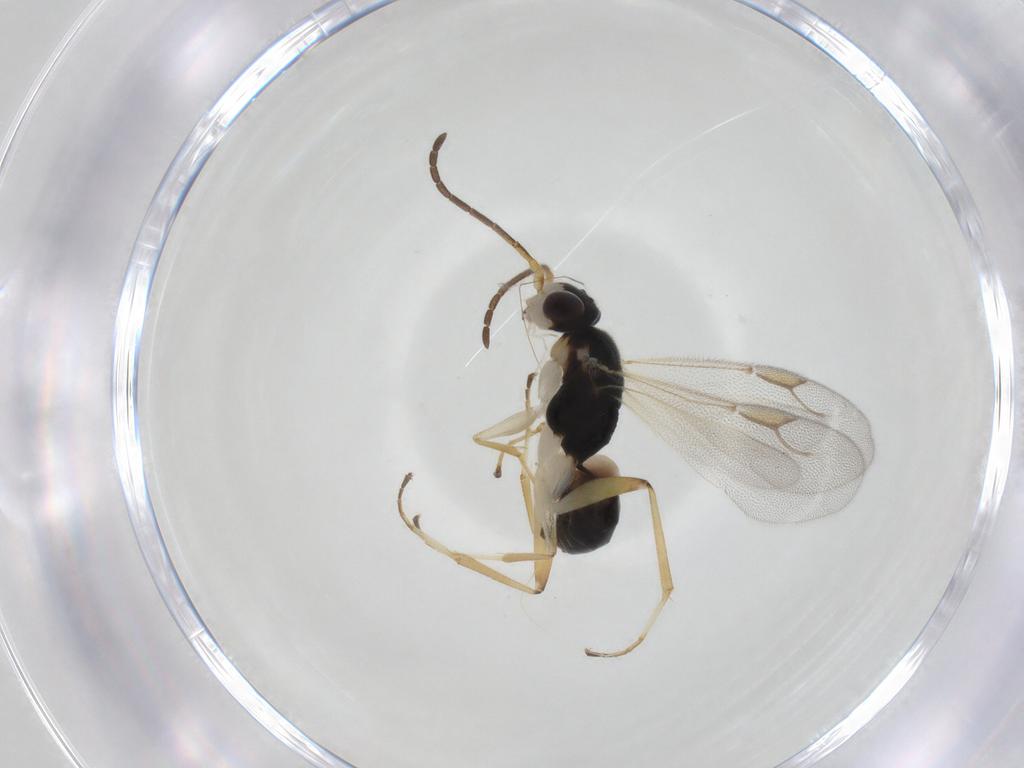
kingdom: Animalia
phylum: Arthropoda
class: Insecta
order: Hymenoptera
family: Dryinidae
